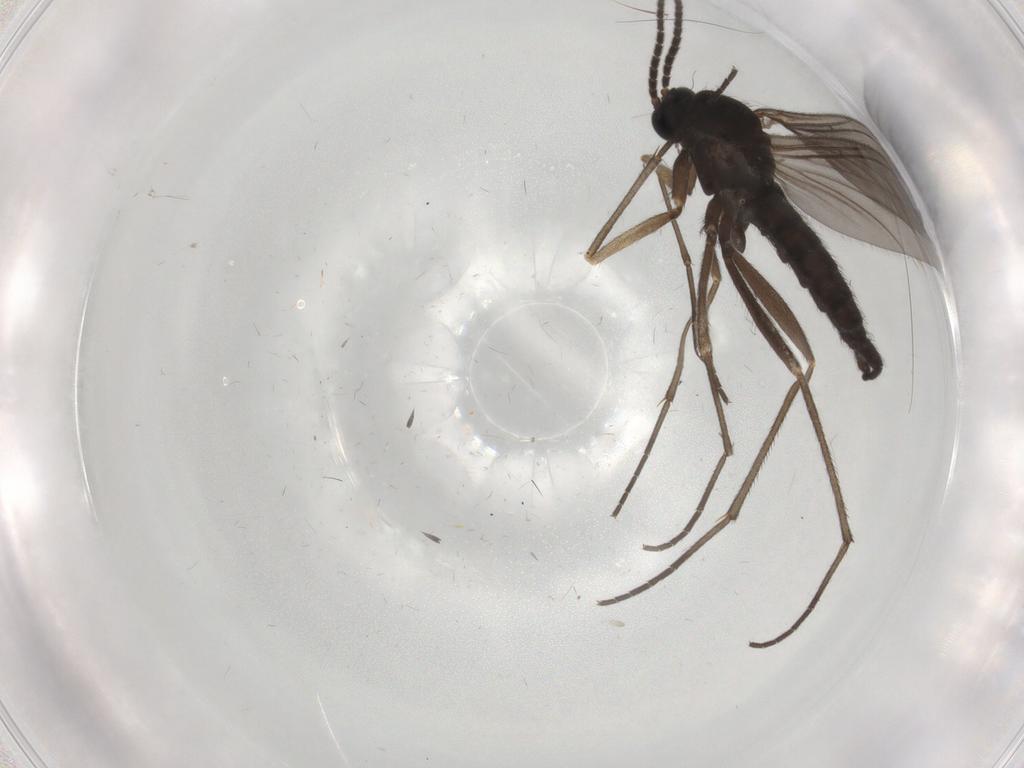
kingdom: Animalia
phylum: Arthropoda
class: Insecta
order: Diptera
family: Sciaridae
